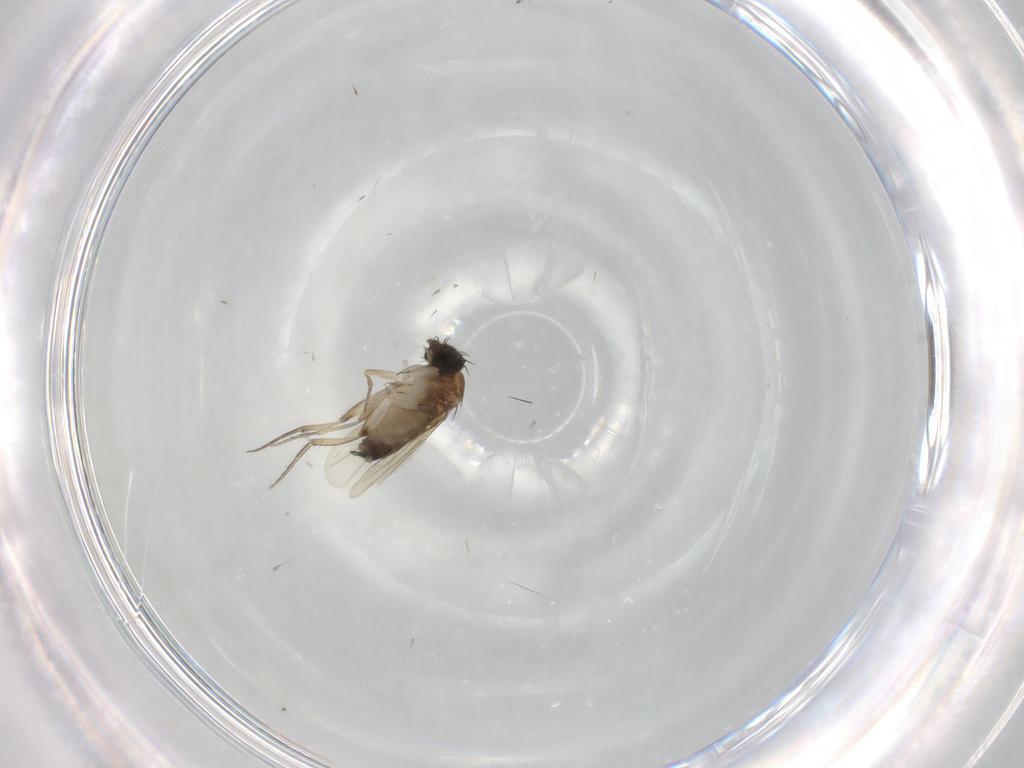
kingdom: Animalia
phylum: Arthropoda
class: Insecta
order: Diptera
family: Phoridae
